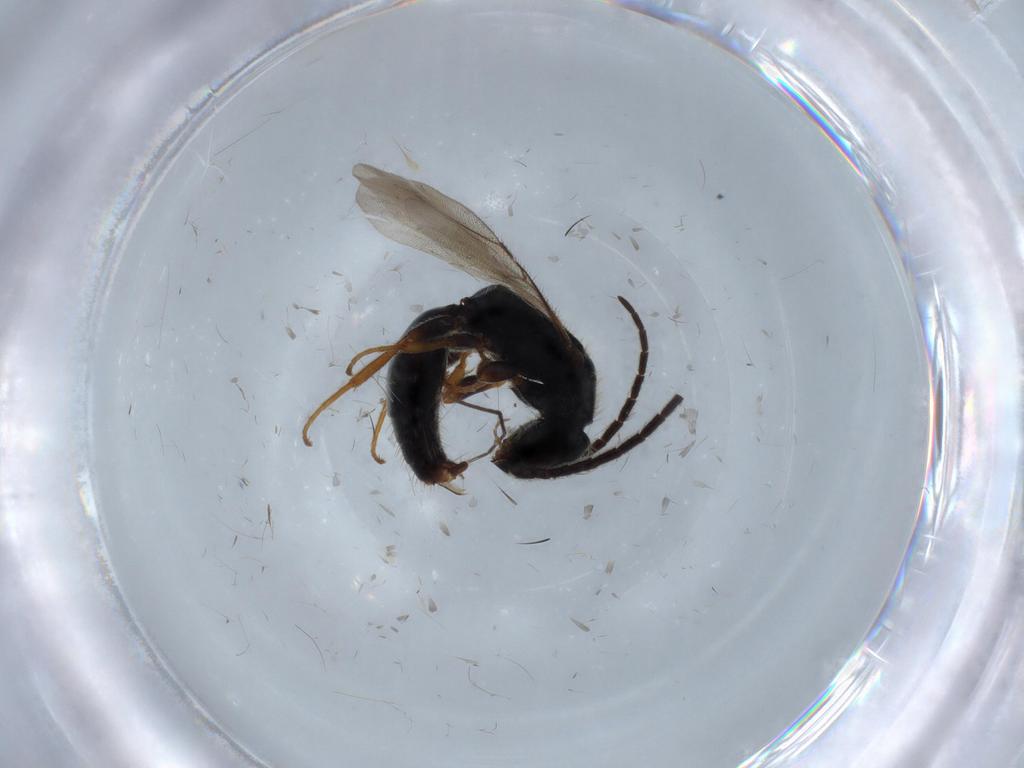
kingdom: Animalia
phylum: Arthropoda
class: Insecta
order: Hymenoptera
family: Bethylidae
